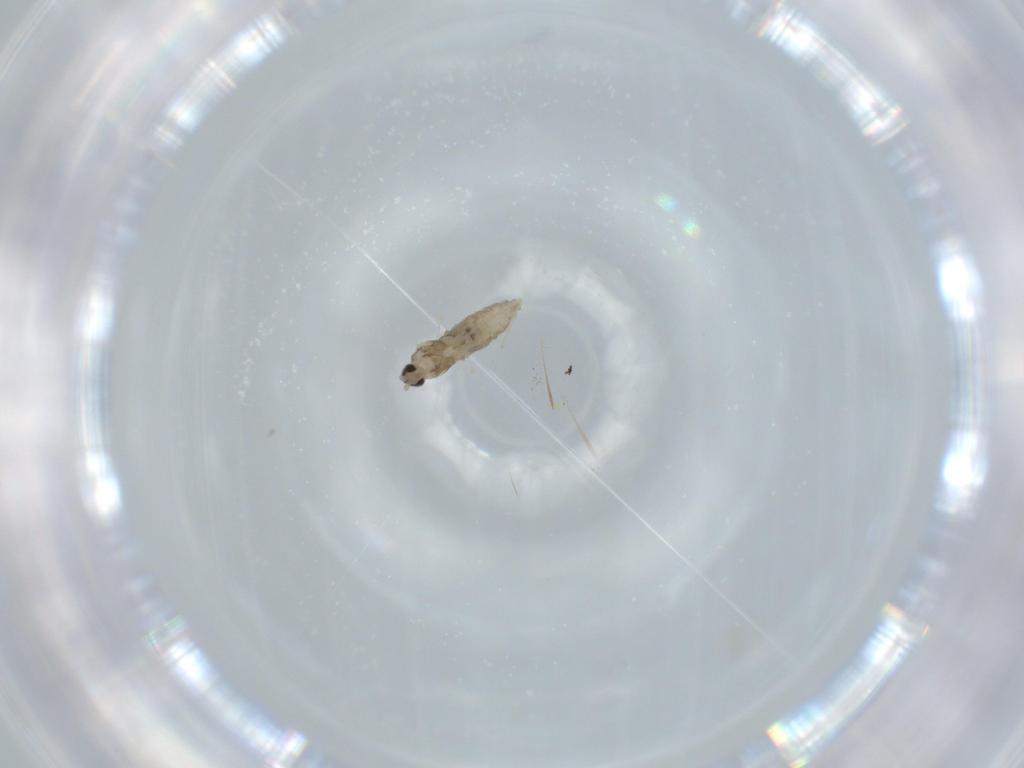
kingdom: Animalia
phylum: Arthropoda
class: Insecta
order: Diptera
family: Cecidomyiidae
